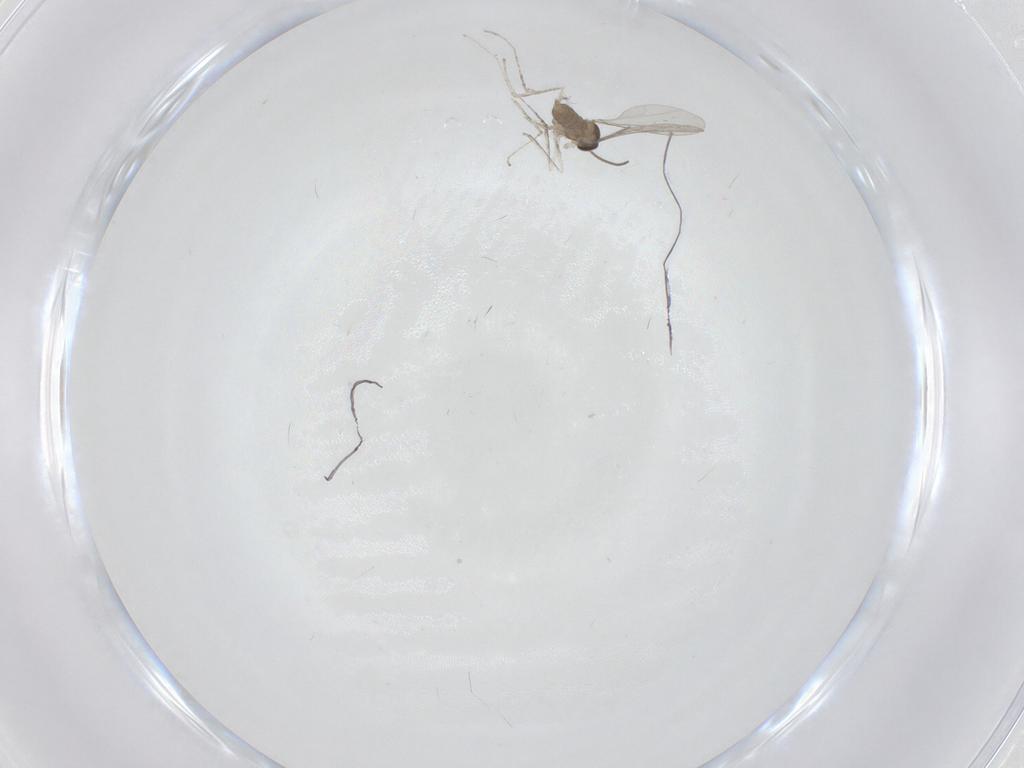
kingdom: Animalia
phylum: Arthropoda
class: Insecta
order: Diptera
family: Cecidomyiidae
